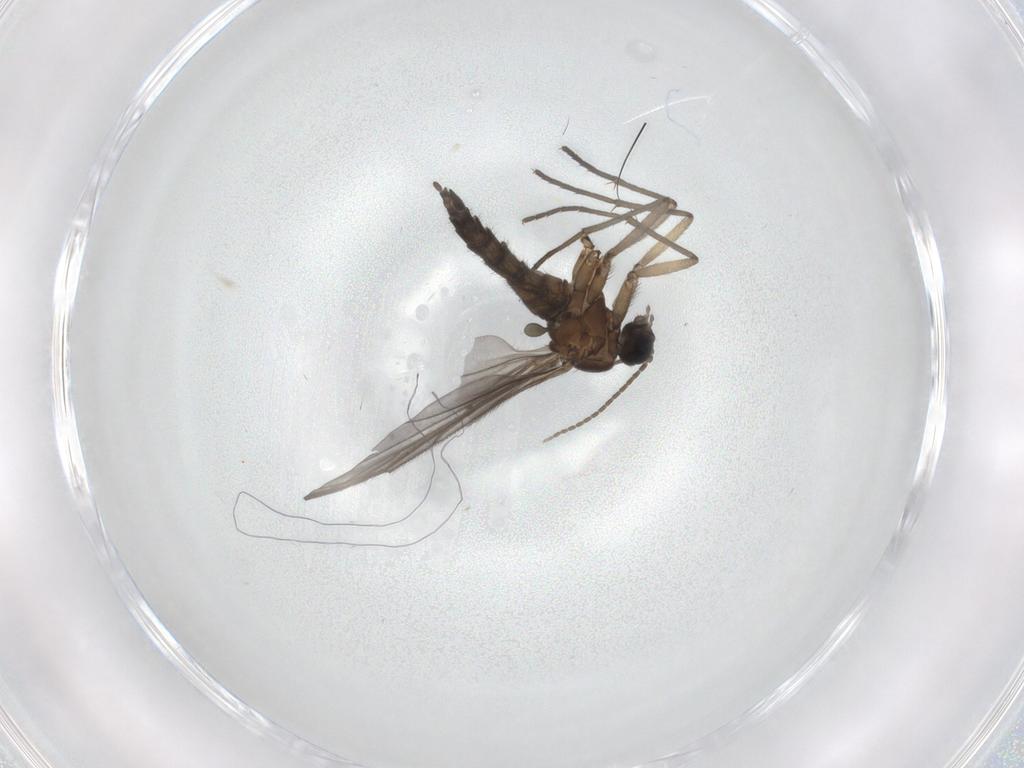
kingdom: Animalia
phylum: Arthropoda
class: Insecta
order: Diptera
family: Sciaridae
